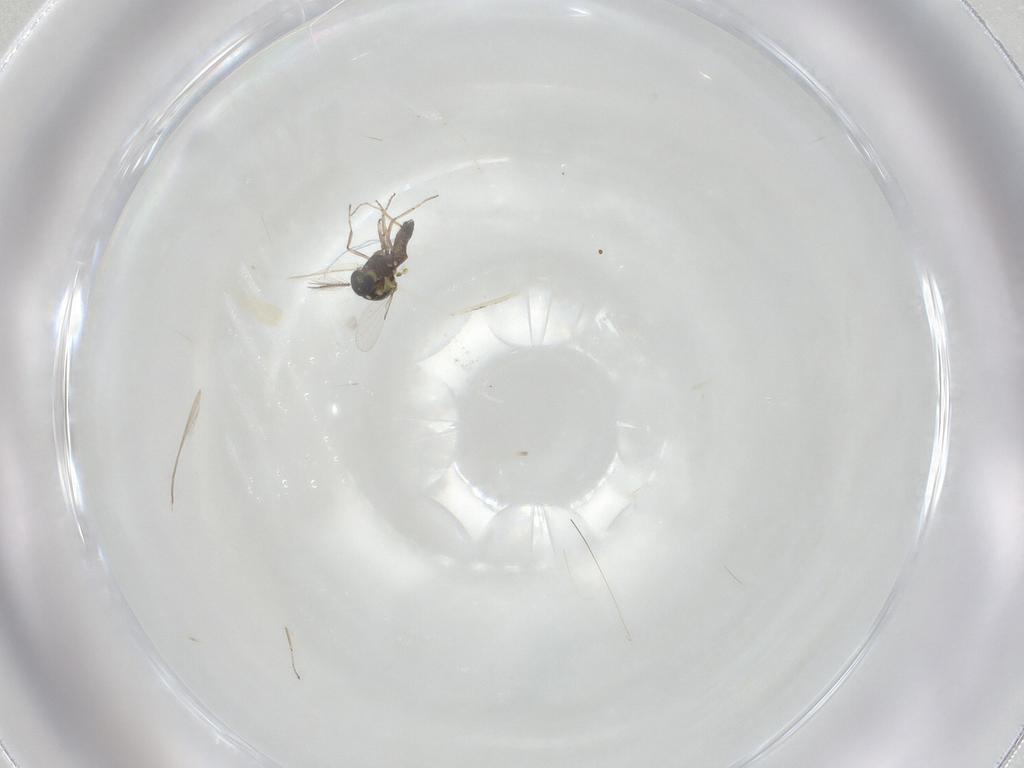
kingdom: Animalia
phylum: Arthropoda
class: Insecta
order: Diptera
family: Ceratopogonidae
